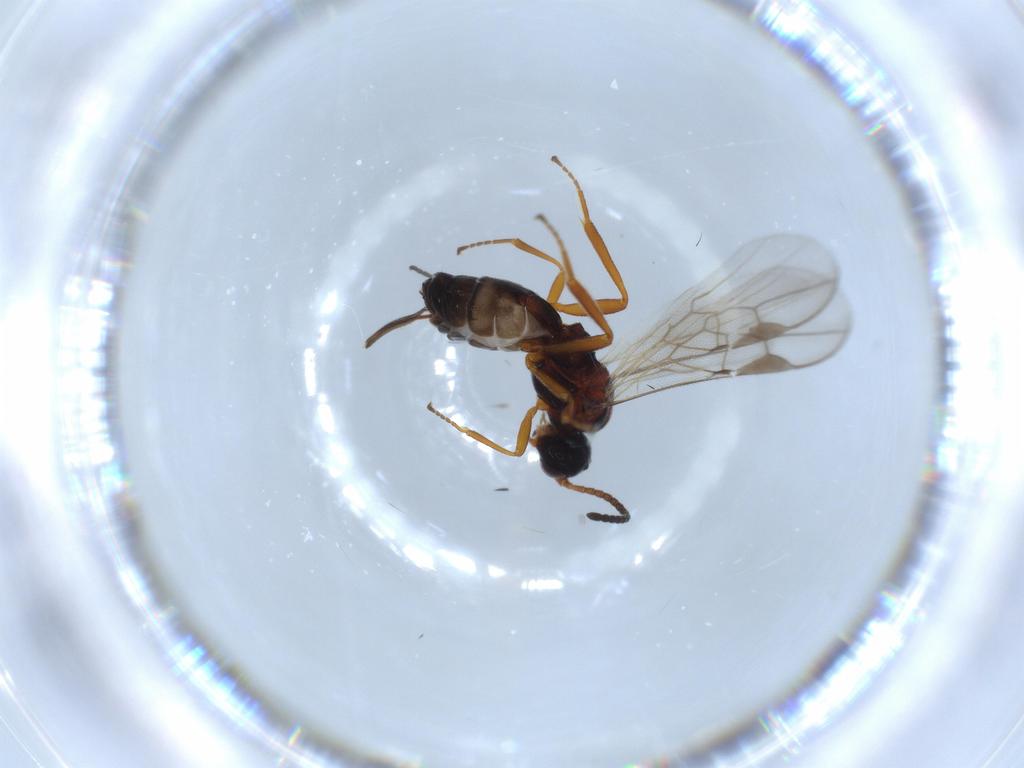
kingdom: Animalia
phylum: Arthropoda
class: Insecta
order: Hymenoptera
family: Braconidae
